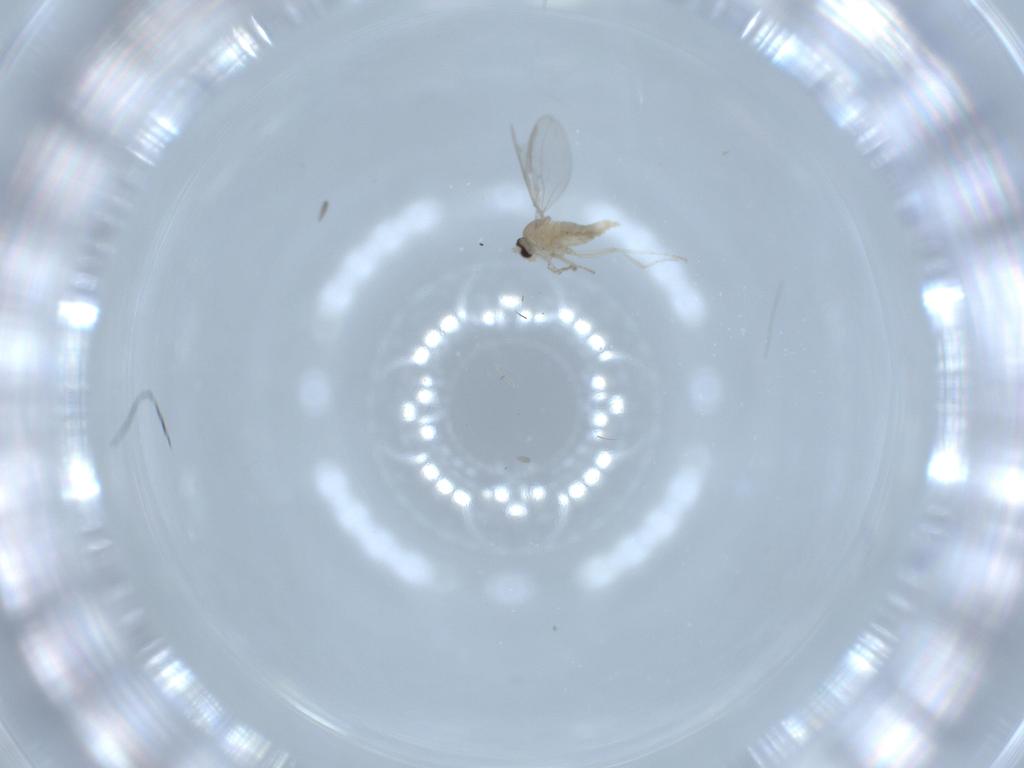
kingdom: Animalia
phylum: Arthropoda
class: Insecta
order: Diptera
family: Cecidomyiidae
